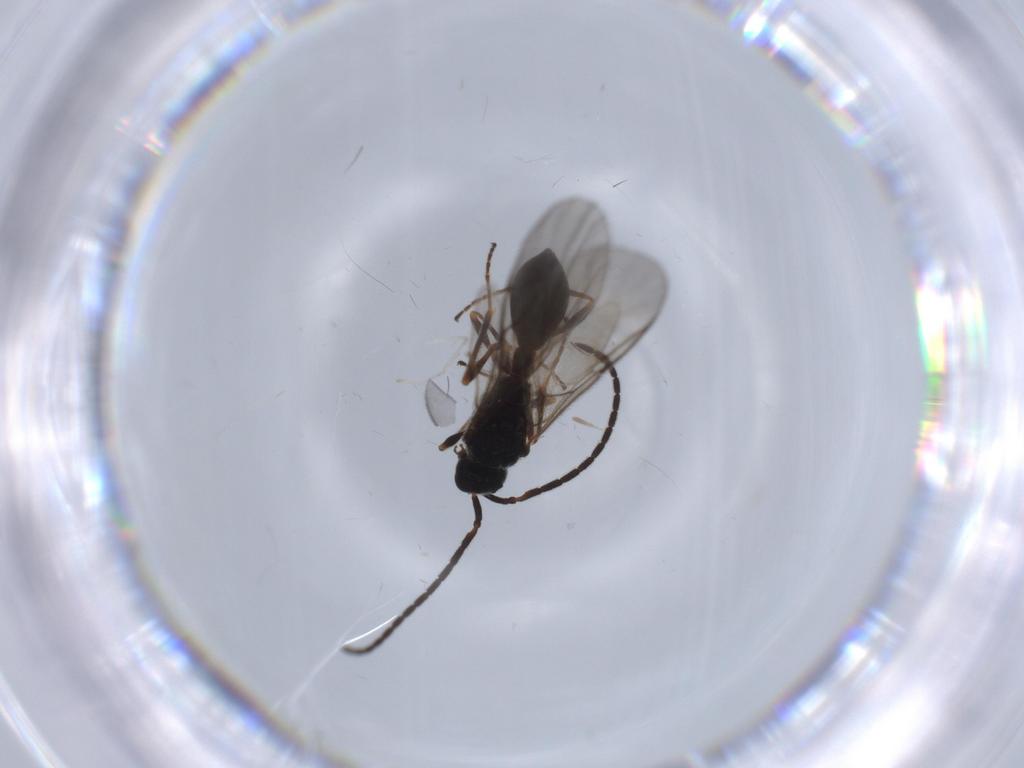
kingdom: Animalia
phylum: Arthropoda
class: Insecta
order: Hymenoptera
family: Diapriidae
